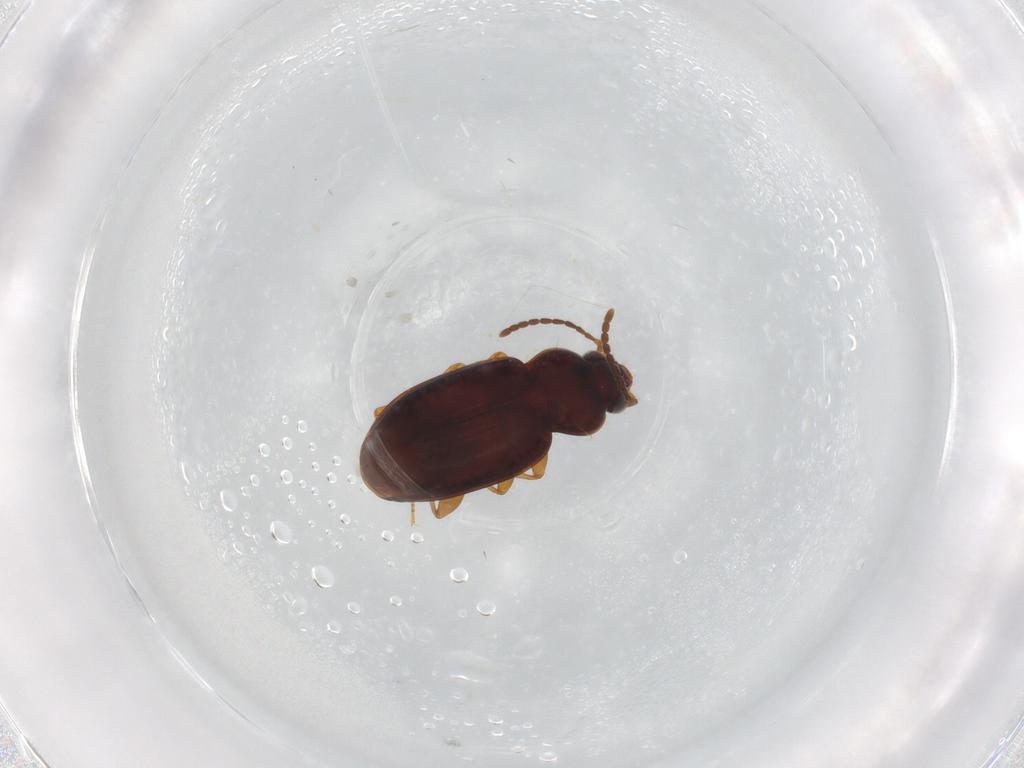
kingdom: Animalia
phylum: Arthropoda
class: Insecta
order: Coleoptera
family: Carabidae
